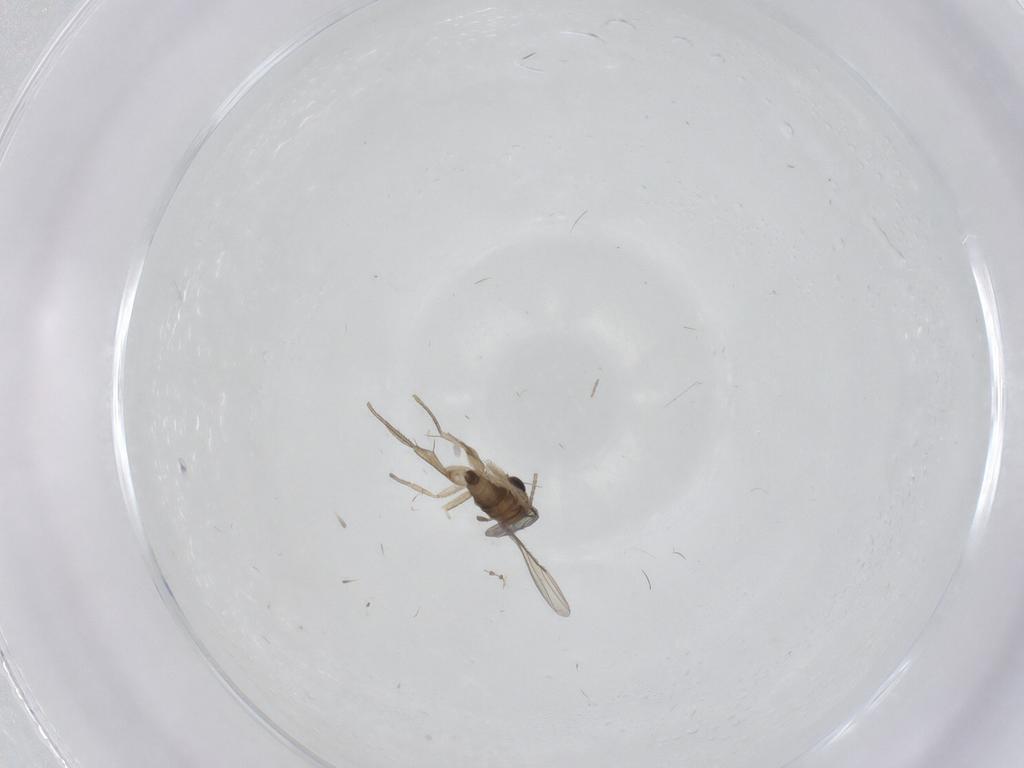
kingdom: Animalia
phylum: Arthropoda
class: Insecta
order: Diptera
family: Phoridae
